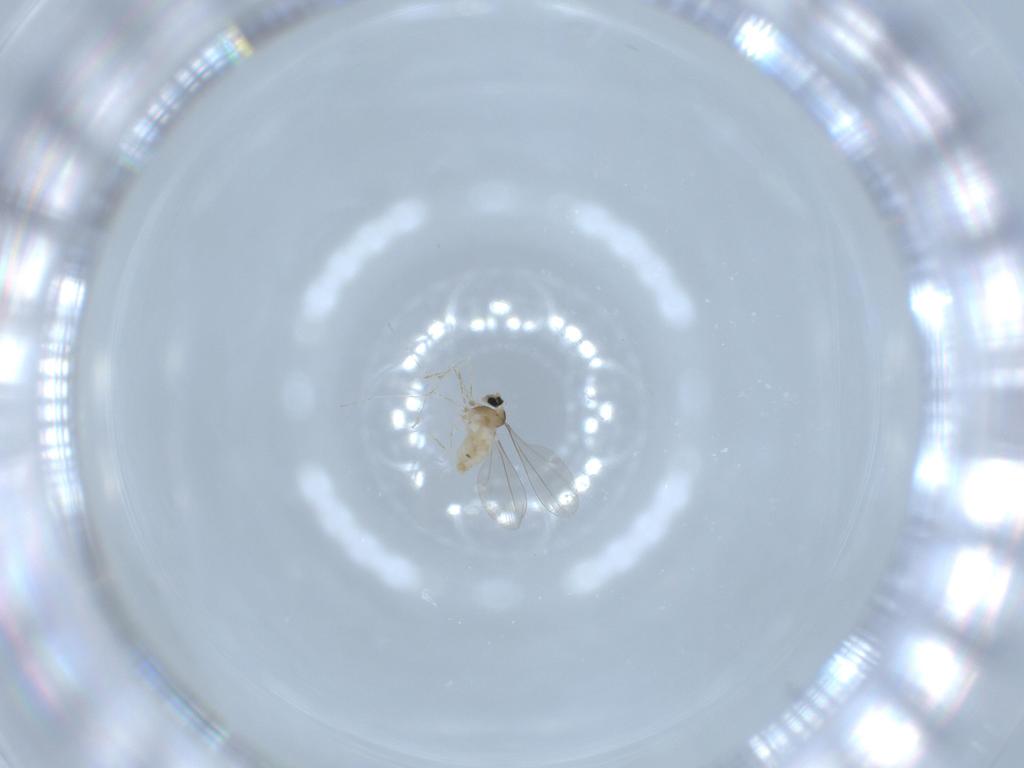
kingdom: Animalia
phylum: Arthropoda
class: Insecta
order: Diptera
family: Cecidomyiidae
